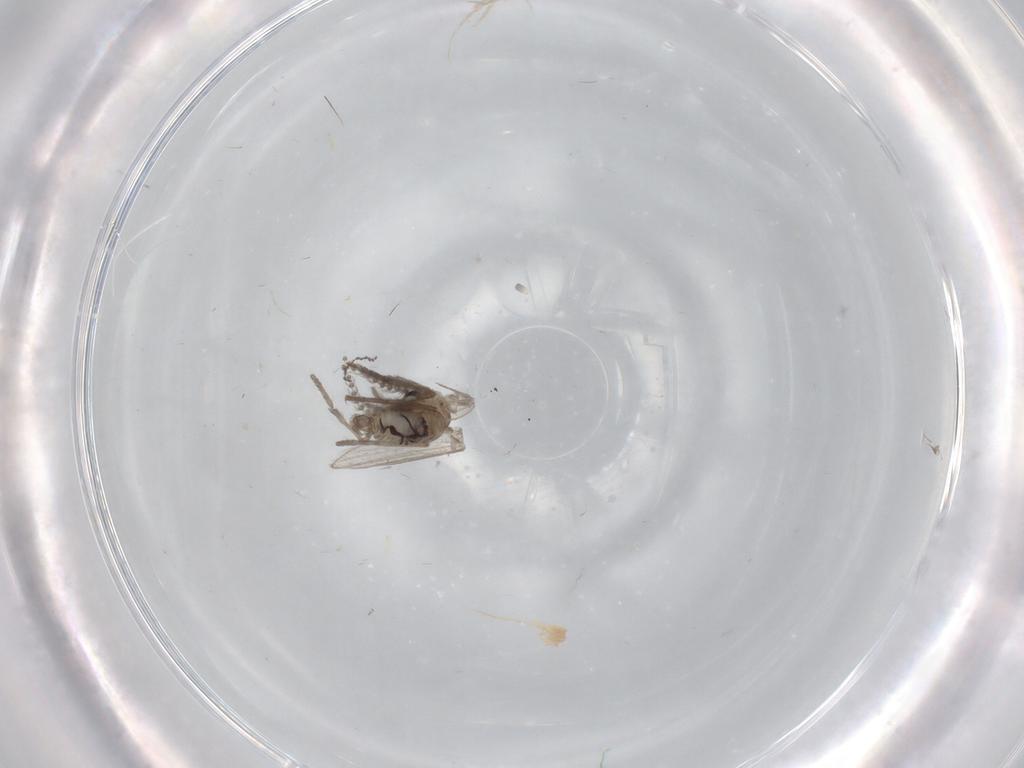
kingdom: Animalia
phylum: Arthropoda
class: Insecta
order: Diptera
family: Psychodidae
